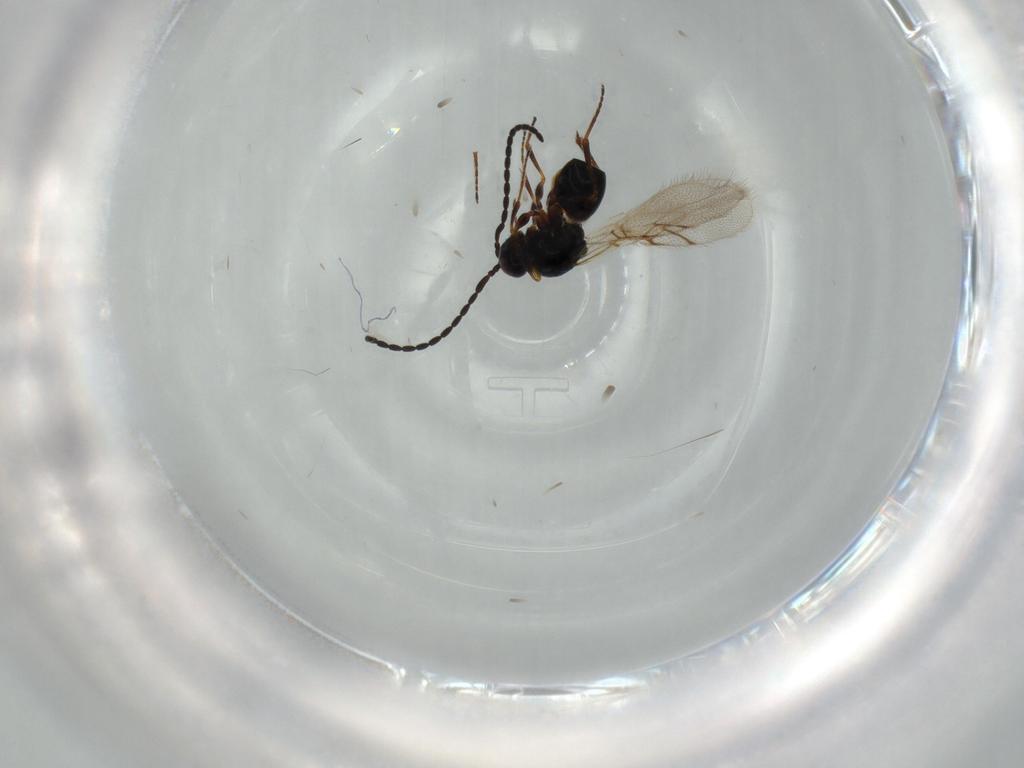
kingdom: Animalia
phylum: Arthropoda
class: Insecta
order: Hymenoptera
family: Figitidae
